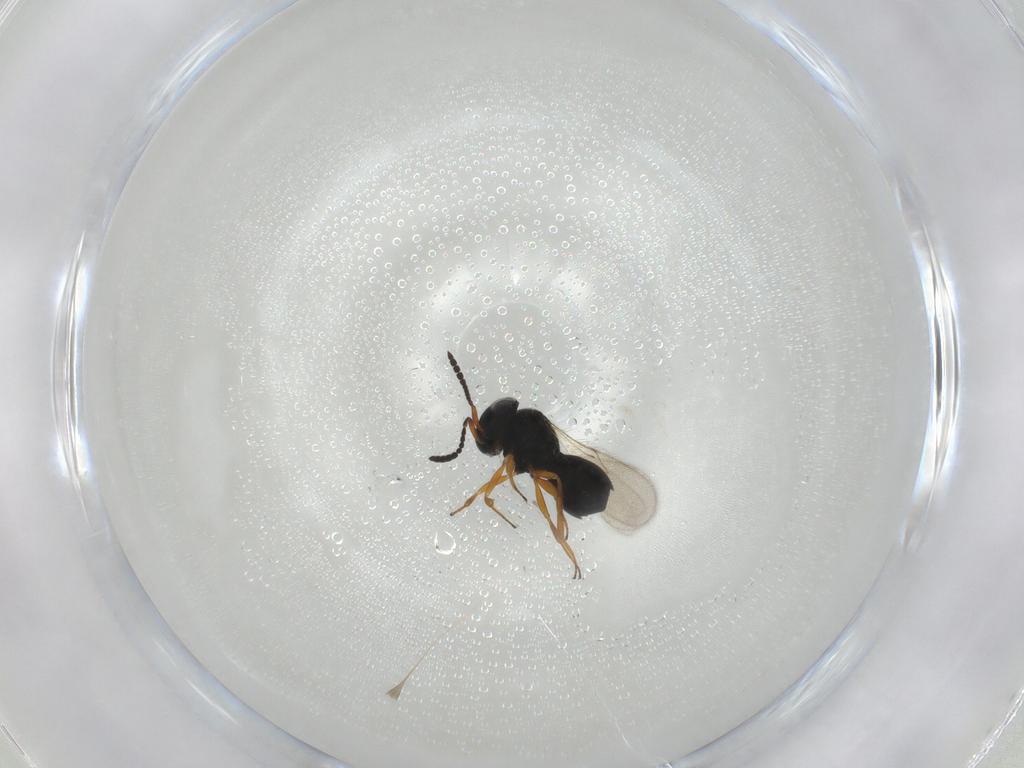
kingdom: Animalia
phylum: Arthropoda
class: Insecta
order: Hymenoptera
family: Scelionidae
